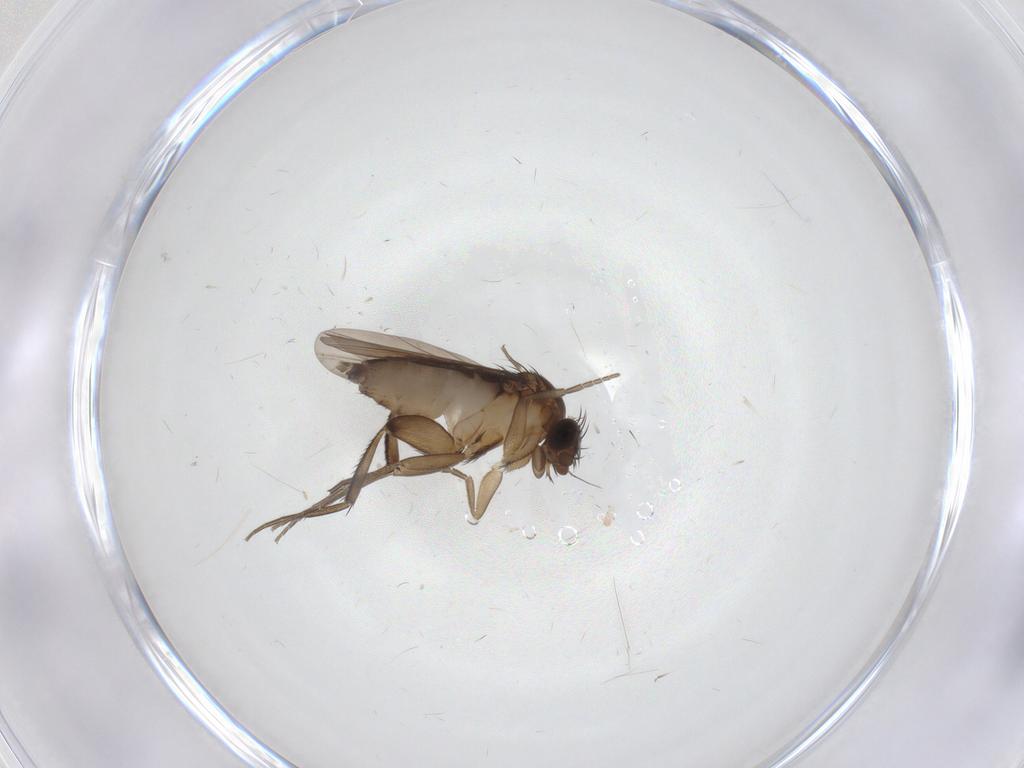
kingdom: Animalia
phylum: Arthropoda
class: Insecta
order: Diptera
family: Phoridae
